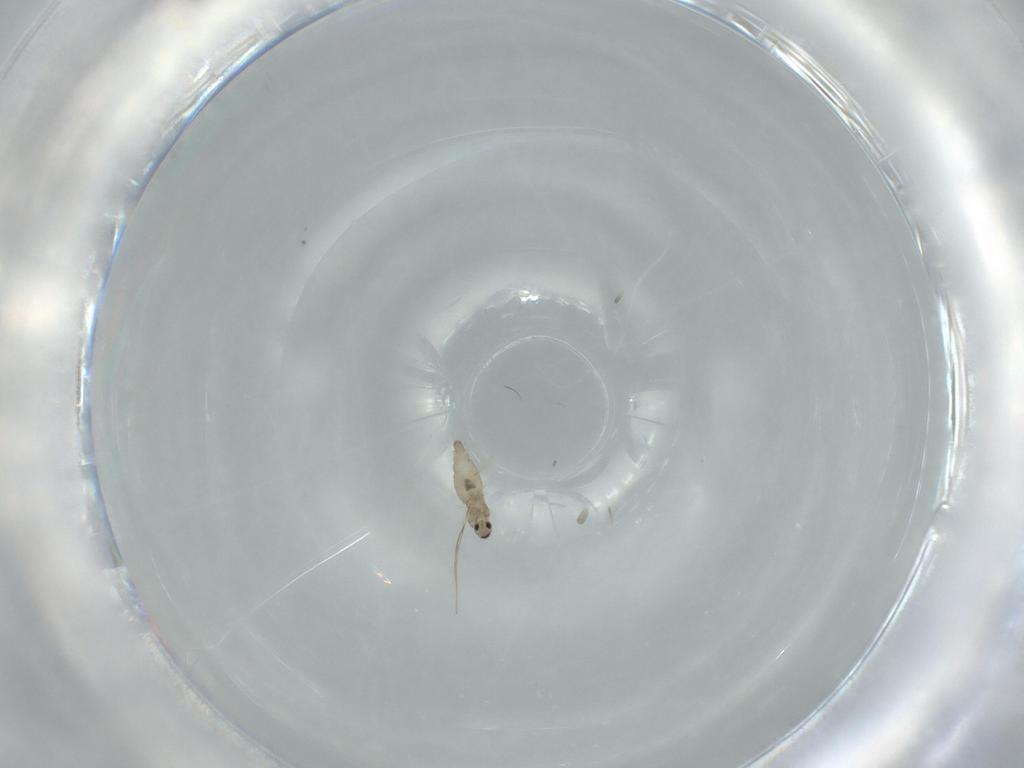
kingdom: Animalia
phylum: Arthropoda
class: Insecta
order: Diptera
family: Cecidomyiidae
